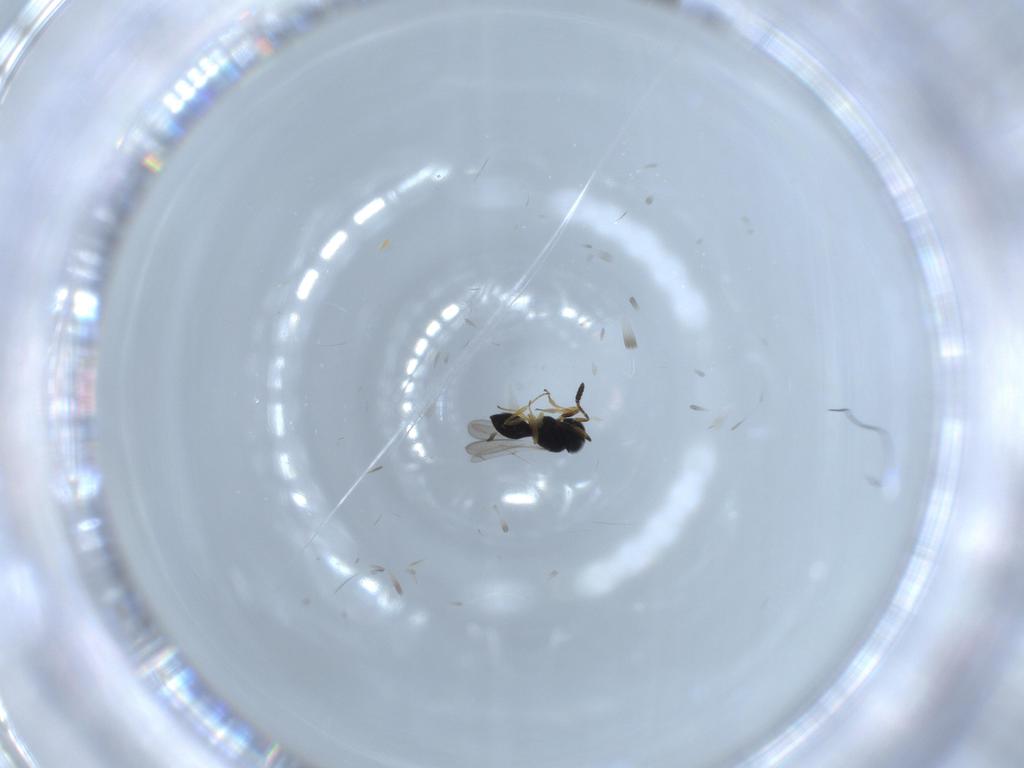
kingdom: Animalia
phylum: Arthropoda
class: Insecta
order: Hymenoptera
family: Scelionidae
